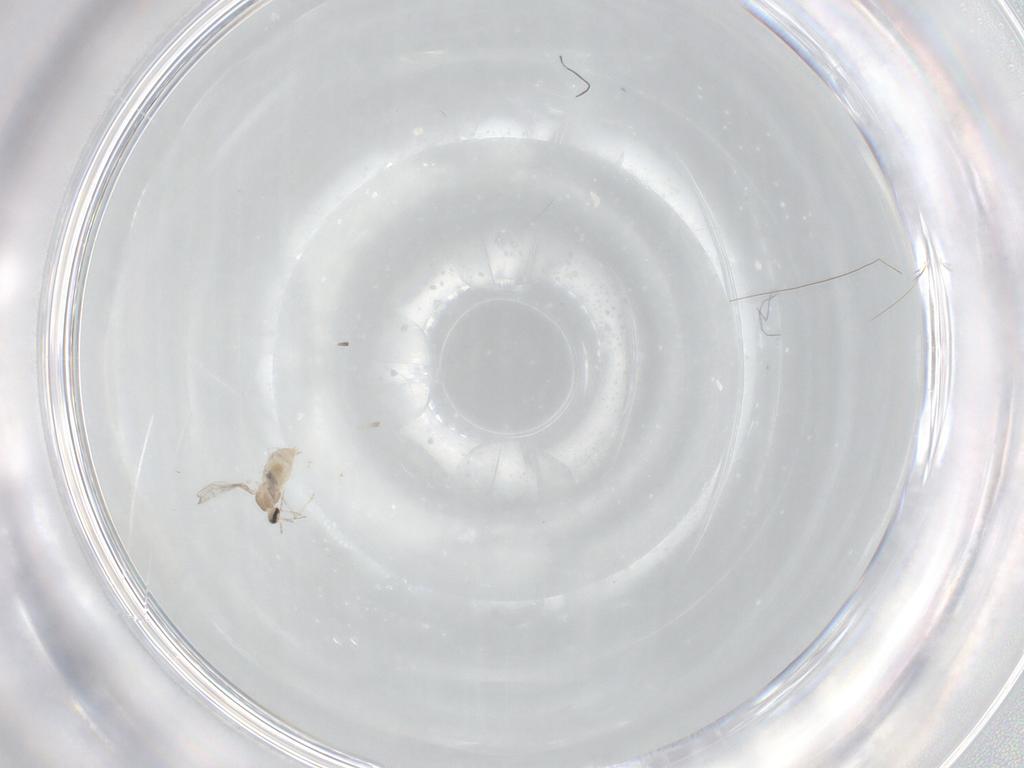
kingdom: Animalia
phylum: Arthropoda
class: Insecta
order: Diptera
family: Cecidomyiidae
